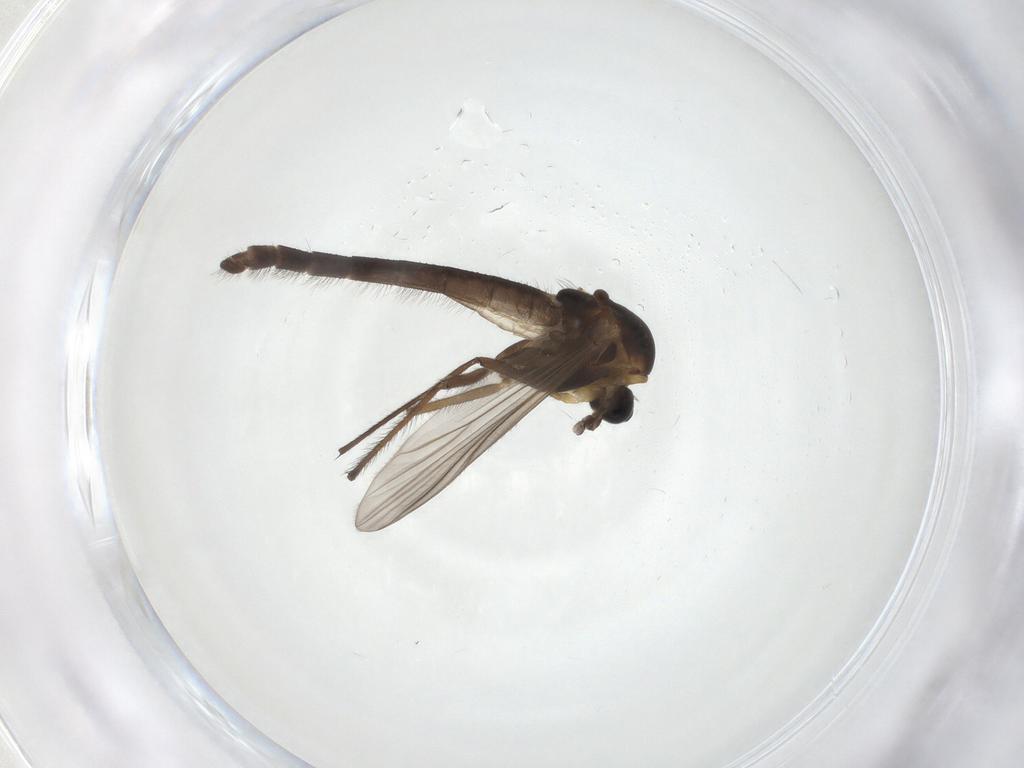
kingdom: Animalia
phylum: Arthropoda
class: Insecta
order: Diptera
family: Chironomidae
